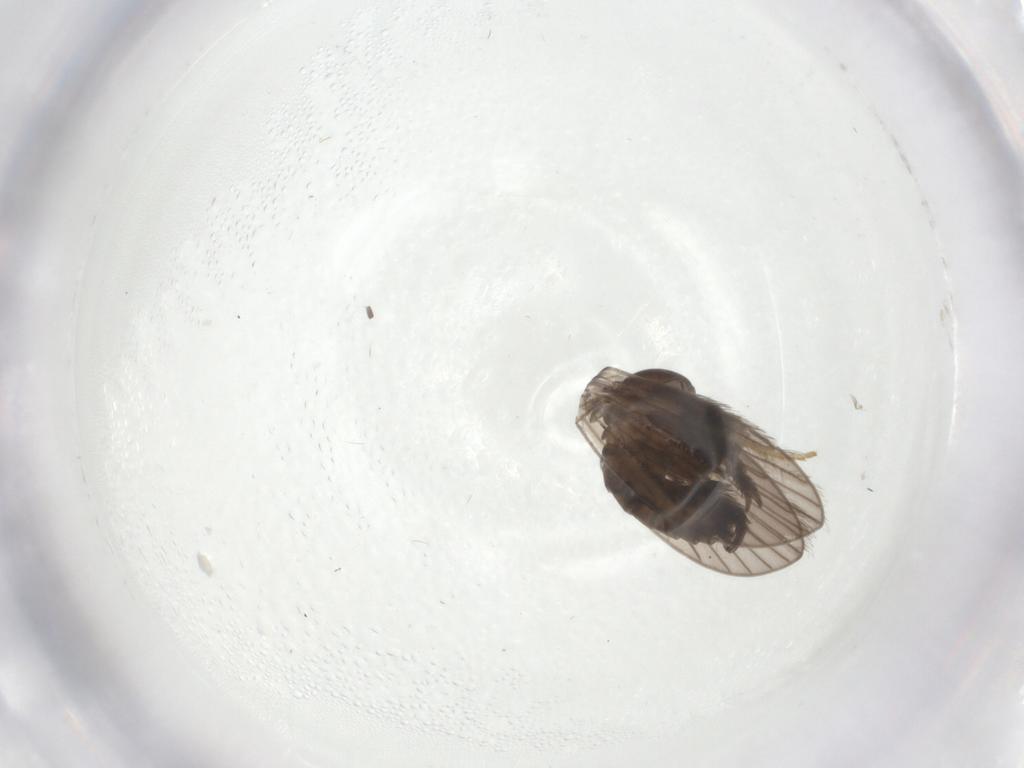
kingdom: Animalia
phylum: Arthropoda
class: Insecta
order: Diptera
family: Psychodidae
